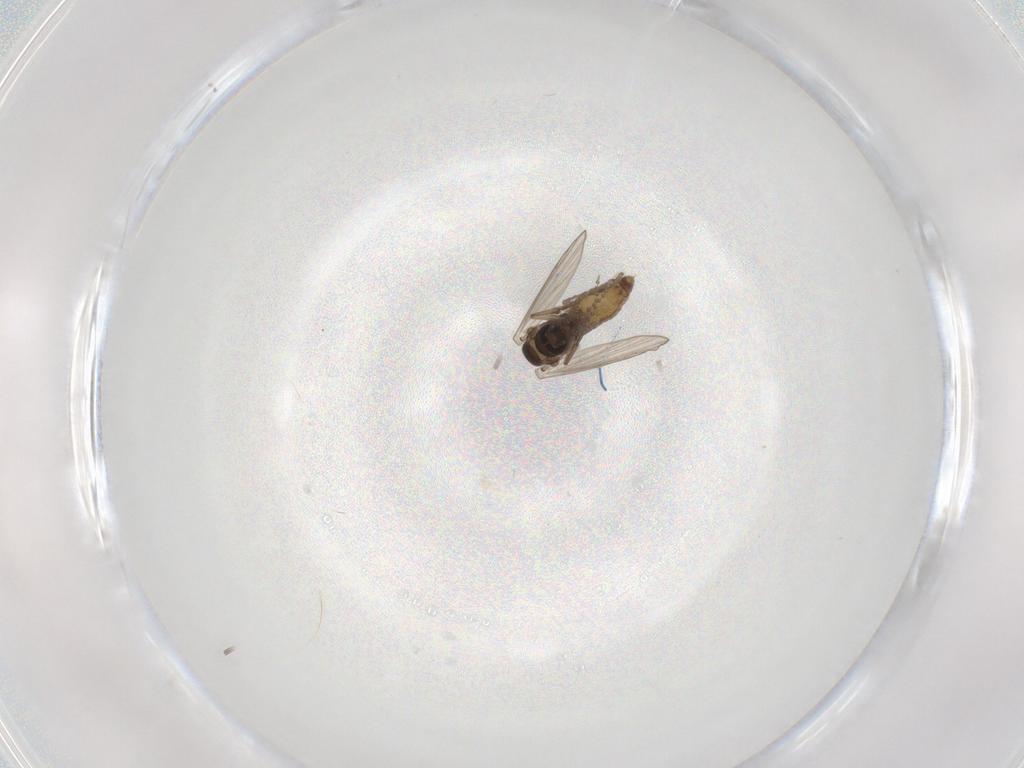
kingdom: Animalia
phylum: Arthropoda
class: Insecta
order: Diptera
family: Psychodidae
